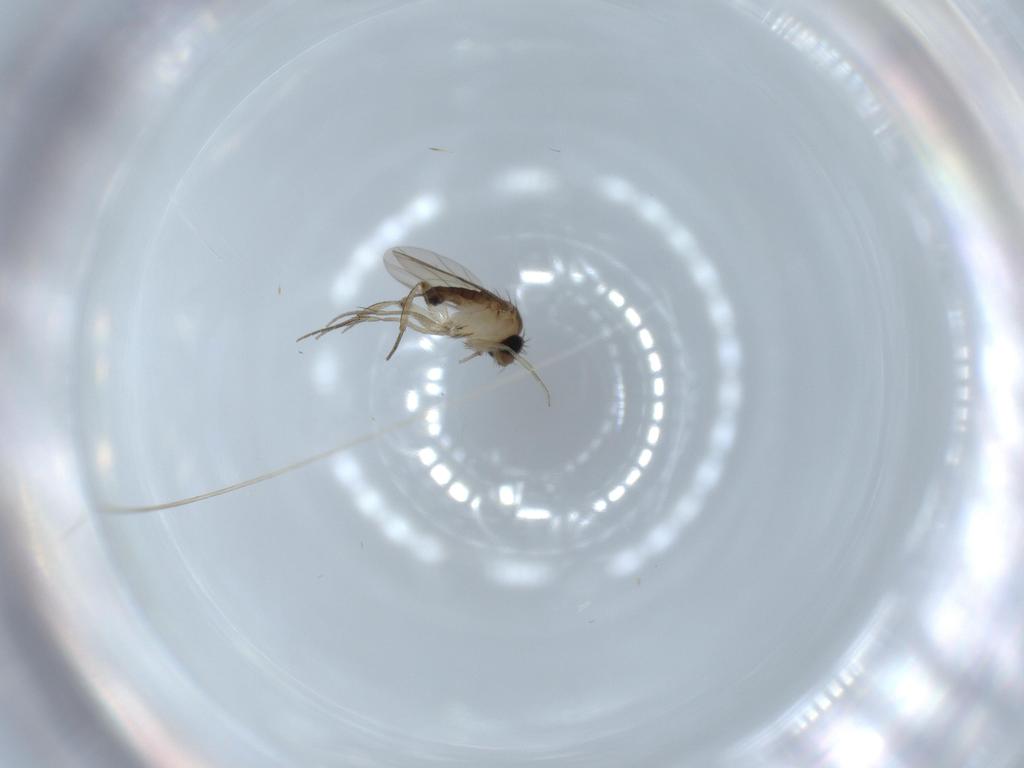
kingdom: Animalia
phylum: Arthropoda
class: Insecta
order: Diptera
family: Phoridae
